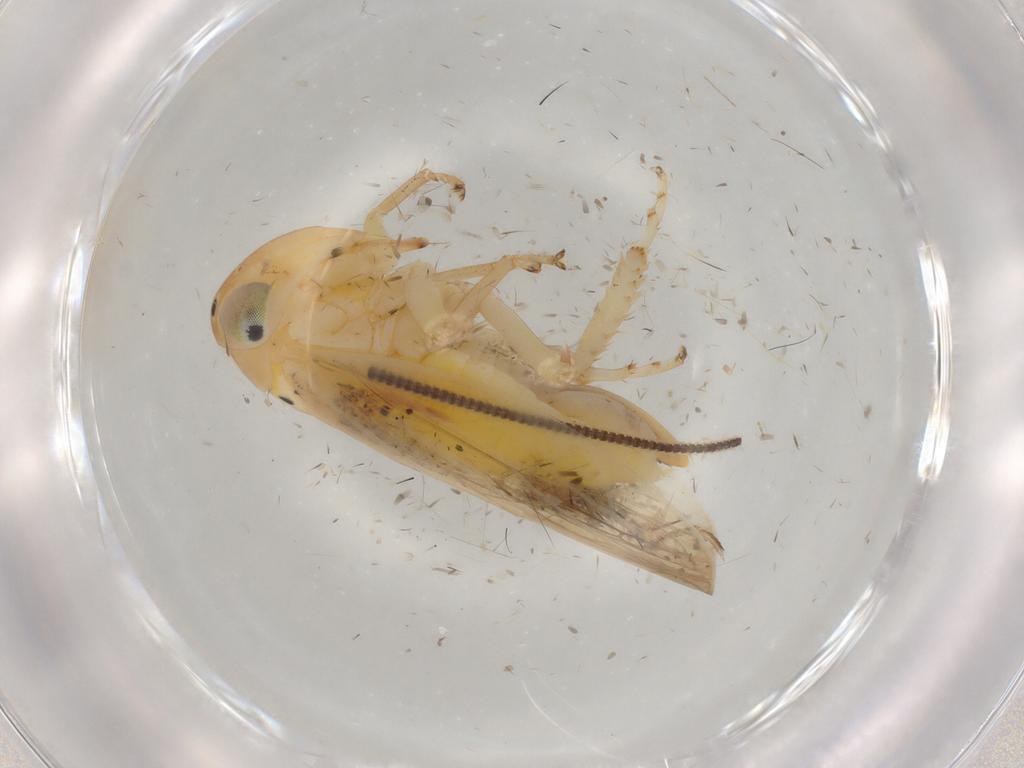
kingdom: Animalia
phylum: Arthropoda
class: Insecta
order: Hemiptera
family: Cicadellidae
